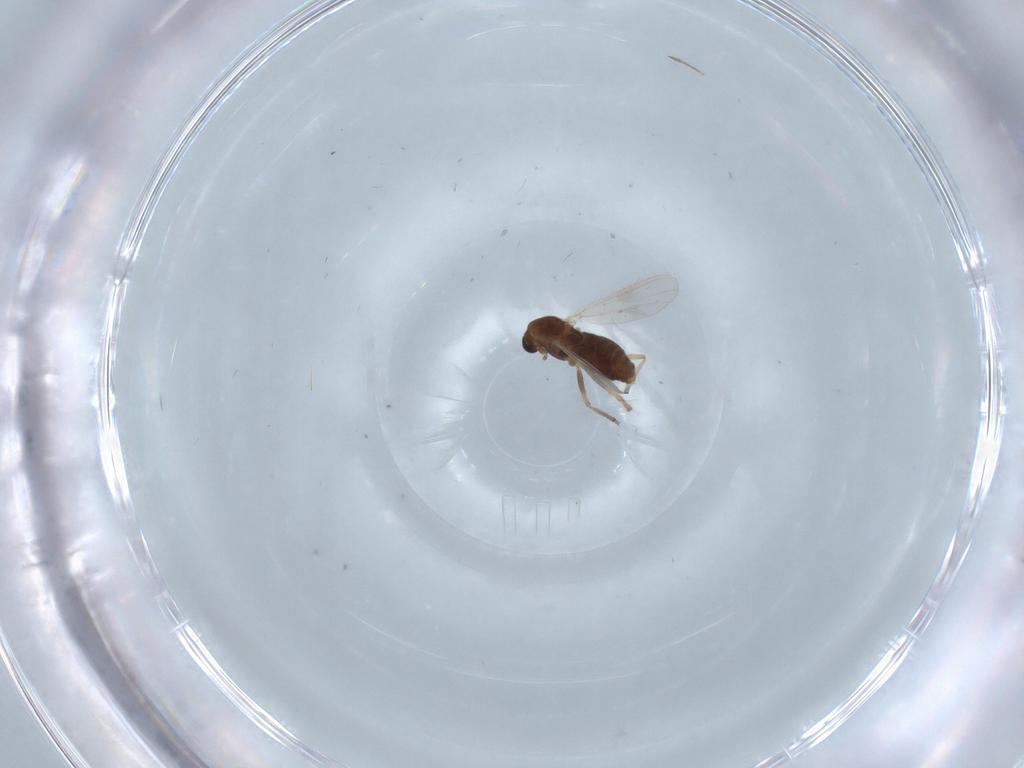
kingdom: Animalia
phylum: Arthropoda
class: Insecta
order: Diptera
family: Chironomidae
